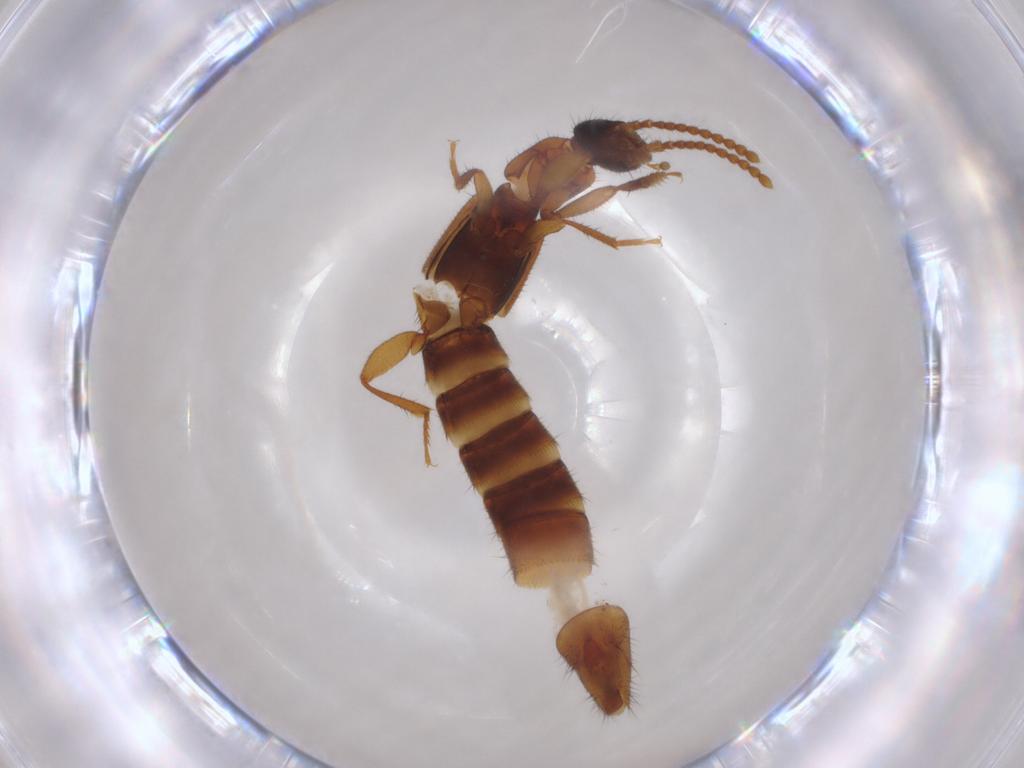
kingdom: Animalia
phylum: Arthropoda
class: Insecta
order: Coleoptera
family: Staphylinidae
